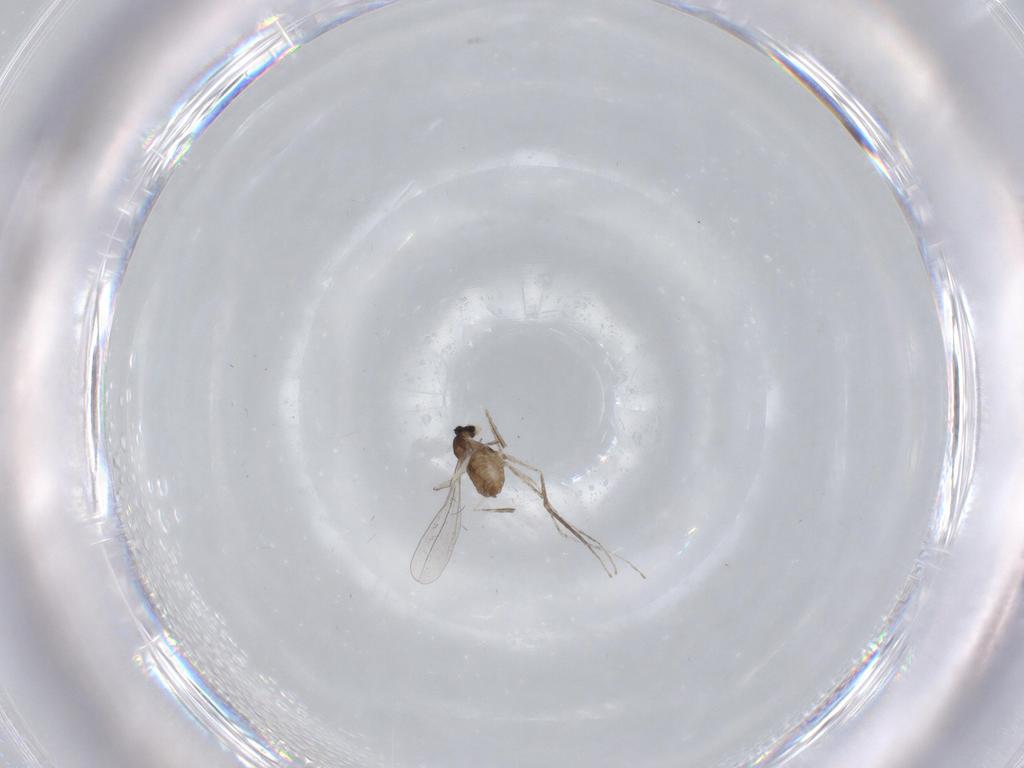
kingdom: Animalia
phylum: Arthropoda
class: Insecta
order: Diptera
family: Cecidomyiidae
